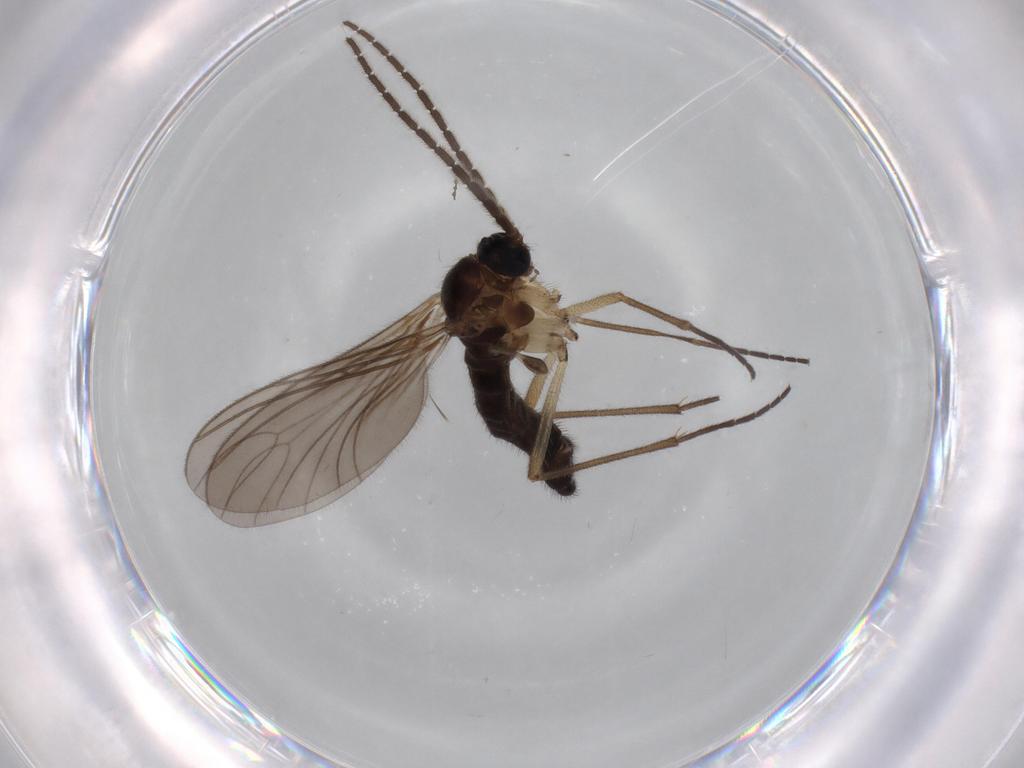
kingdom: Animalia
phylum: Arthropoda
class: Insecta
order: Diptera
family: Sciaridae
